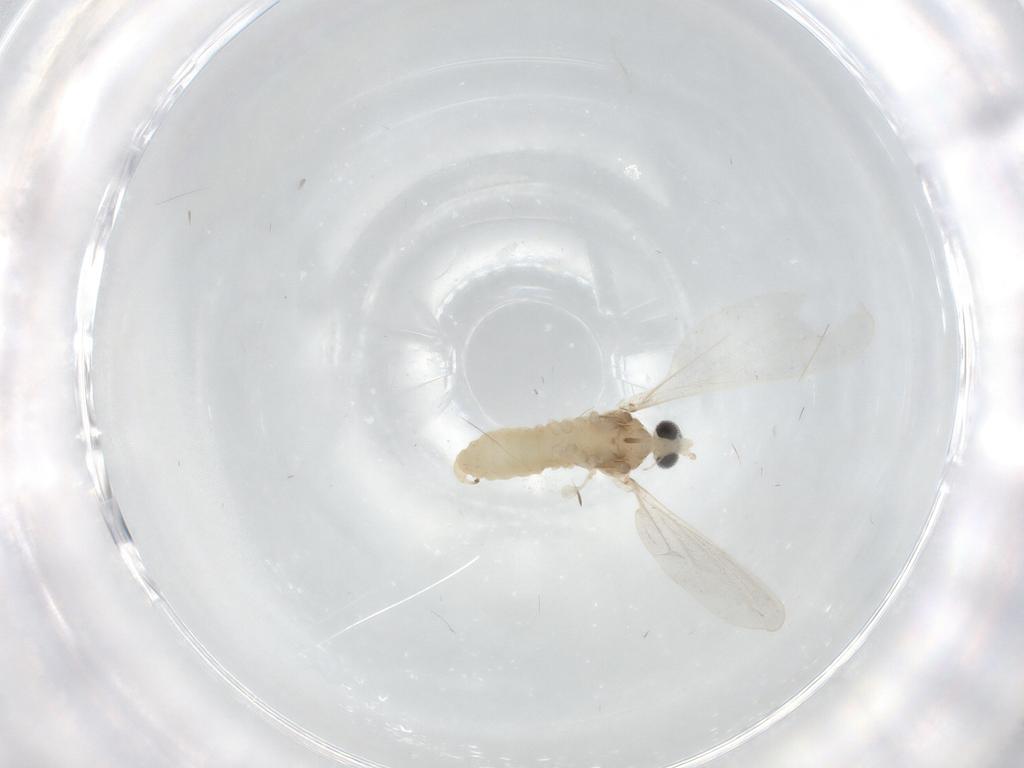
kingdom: Animalia
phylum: Arthropoda
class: Insecta
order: Diptera
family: Cecidomyiidae
